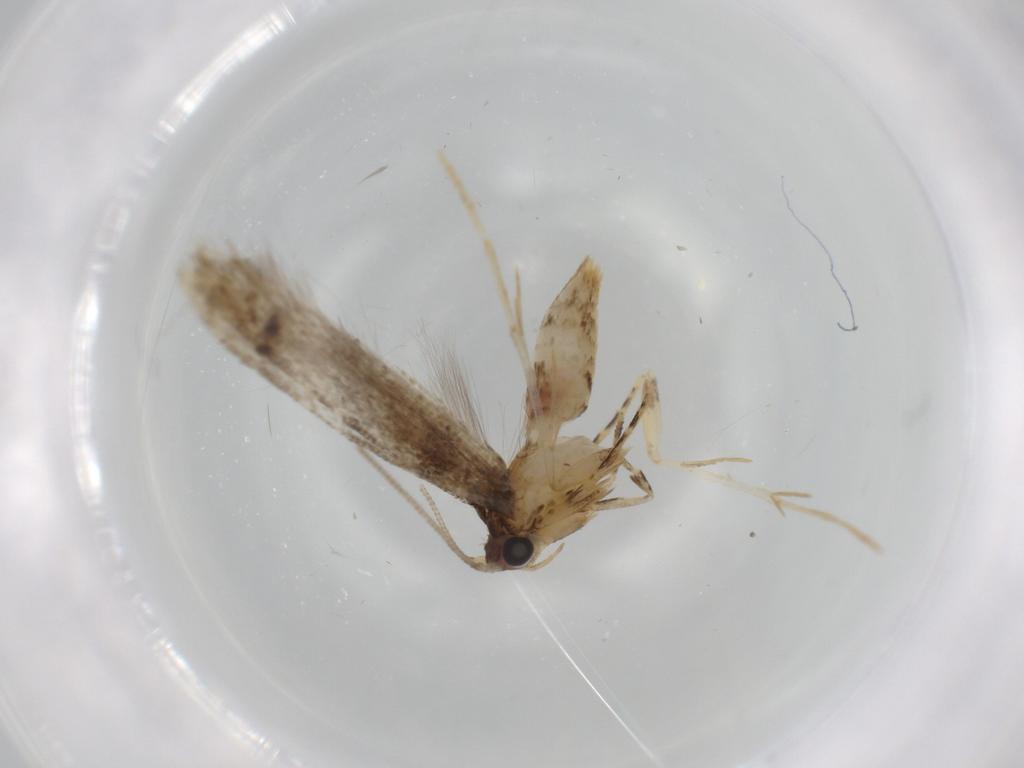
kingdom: Animalia
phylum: Arthropoda
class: Insecta
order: Lepidoptera
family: Tineidae
